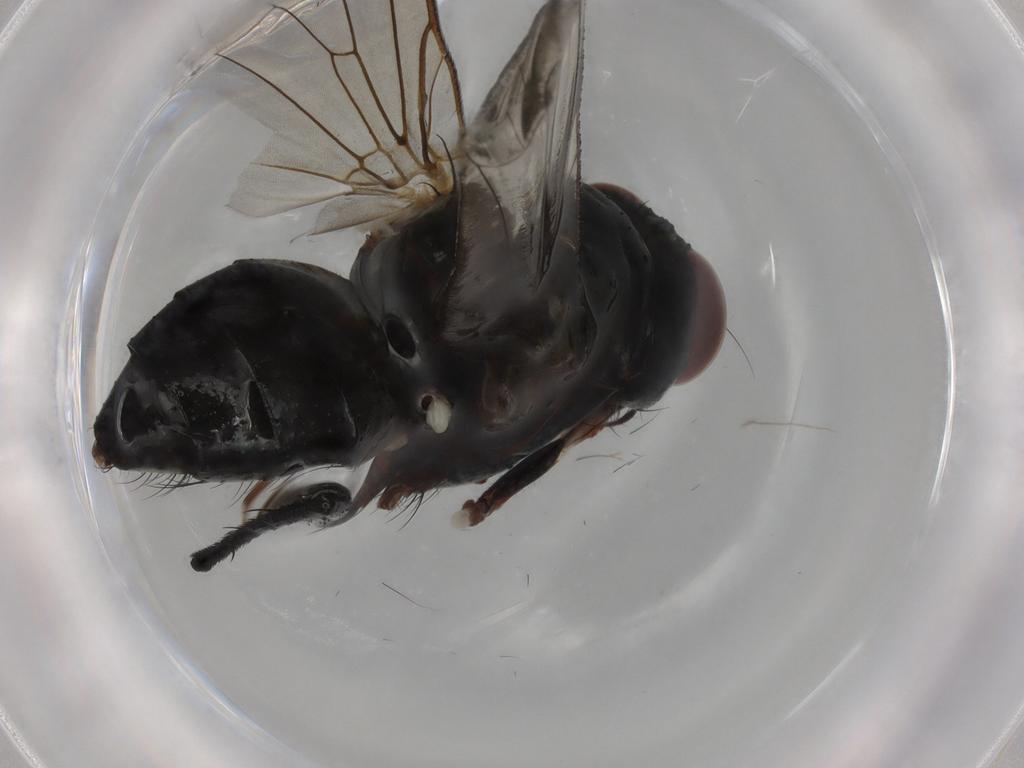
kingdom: Animalia
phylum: Arthropoda
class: Insecta
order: Diptera
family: Anthomyiidae
